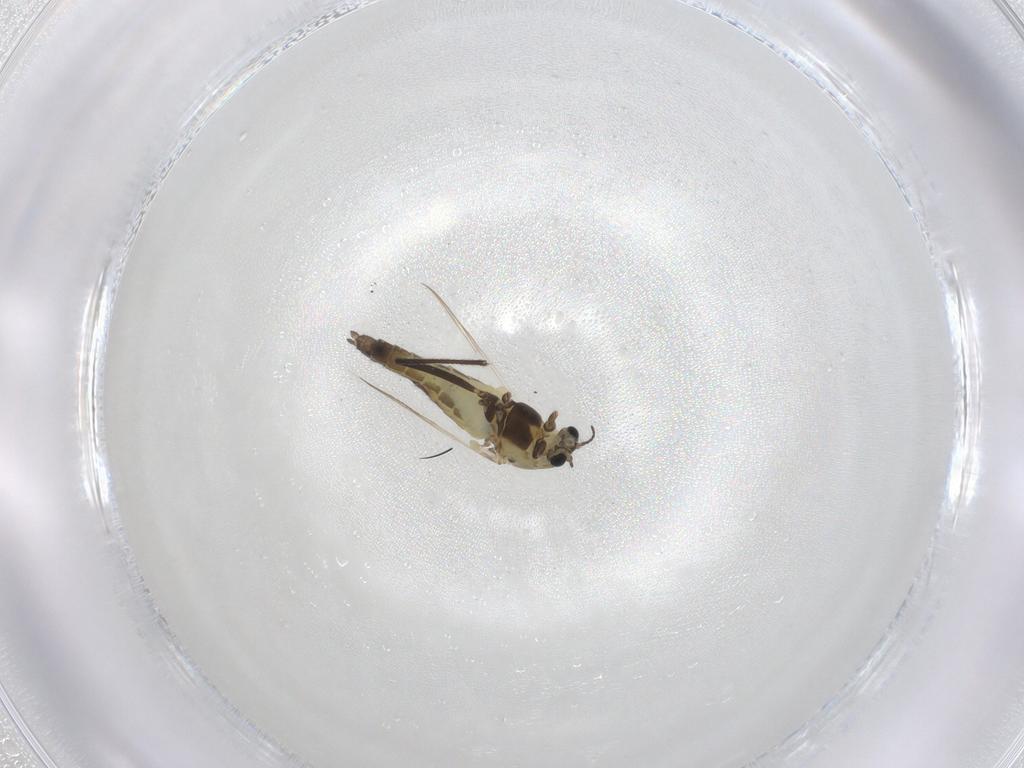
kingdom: Animalia
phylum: Arthropoda
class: Insecta
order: Diptera
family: Chironomidae
